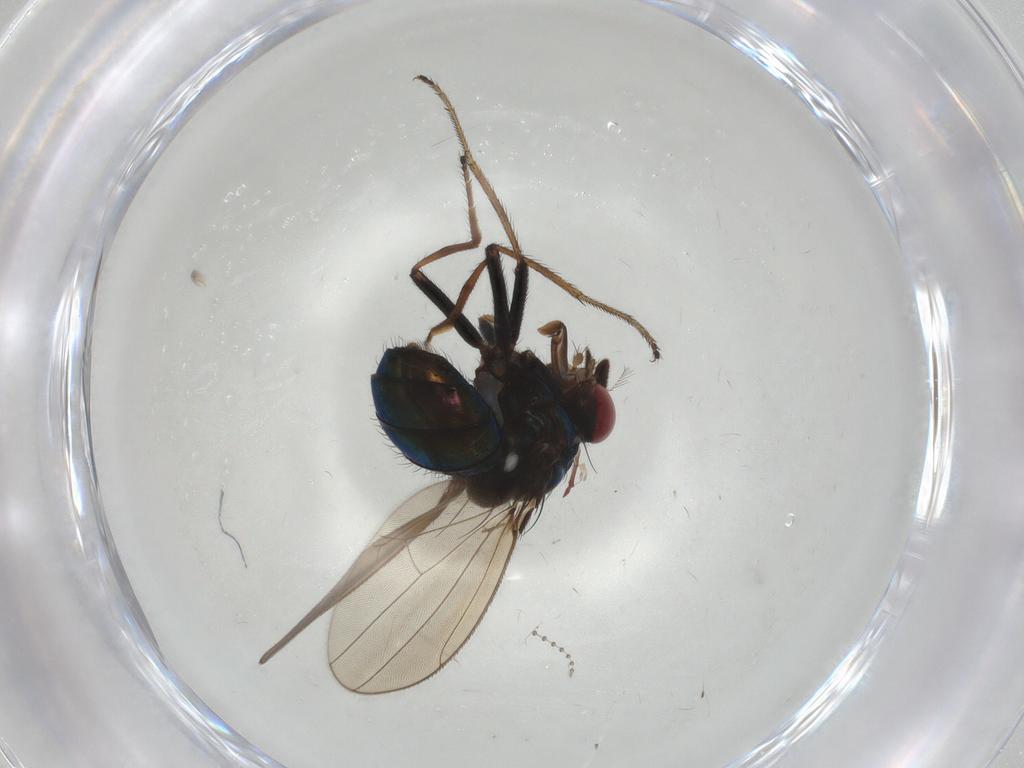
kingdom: Animalia
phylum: Arthropoda
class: Insecta
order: Diptera
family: Ephydridae
